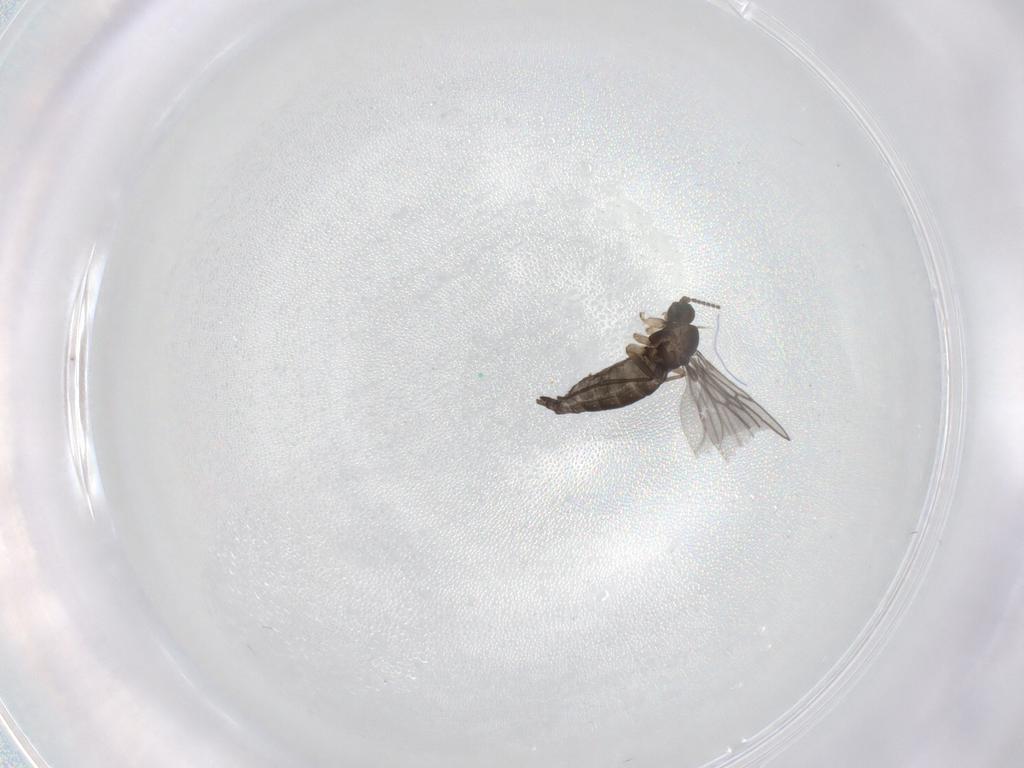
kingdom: Animalia
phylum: Arthropoda
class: Insecta
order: Diptera
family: Sciaridae
